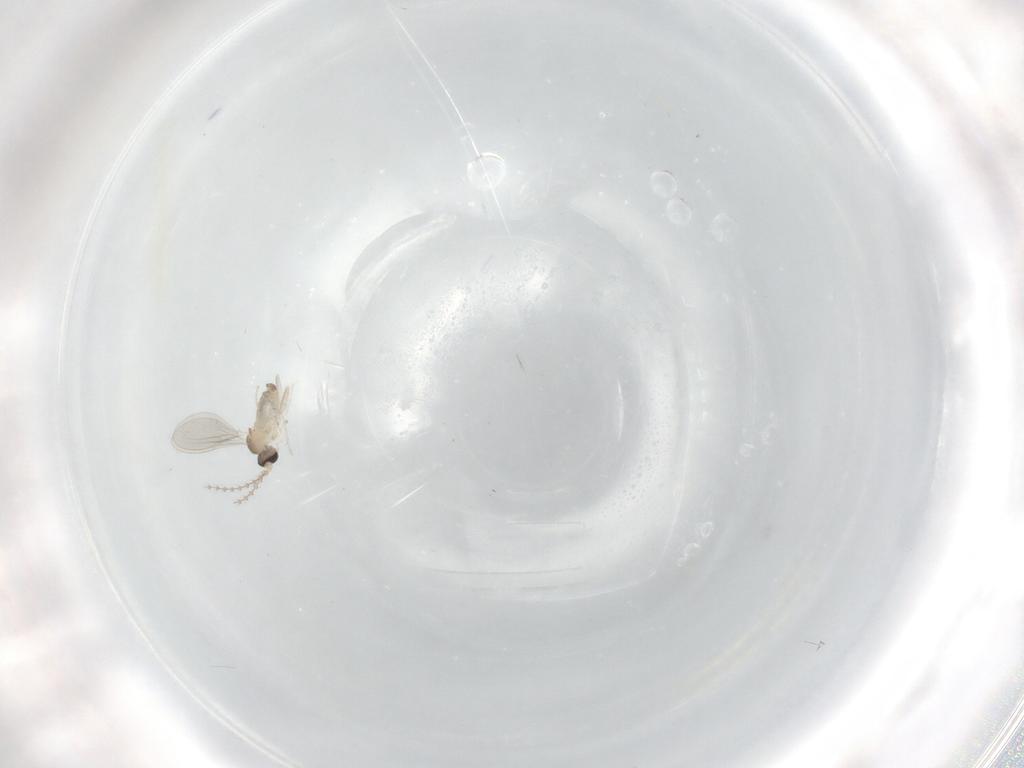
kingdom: Animalia
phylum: Arthropoda
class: Insecta
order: Diptera
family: Cecidomyiidae
